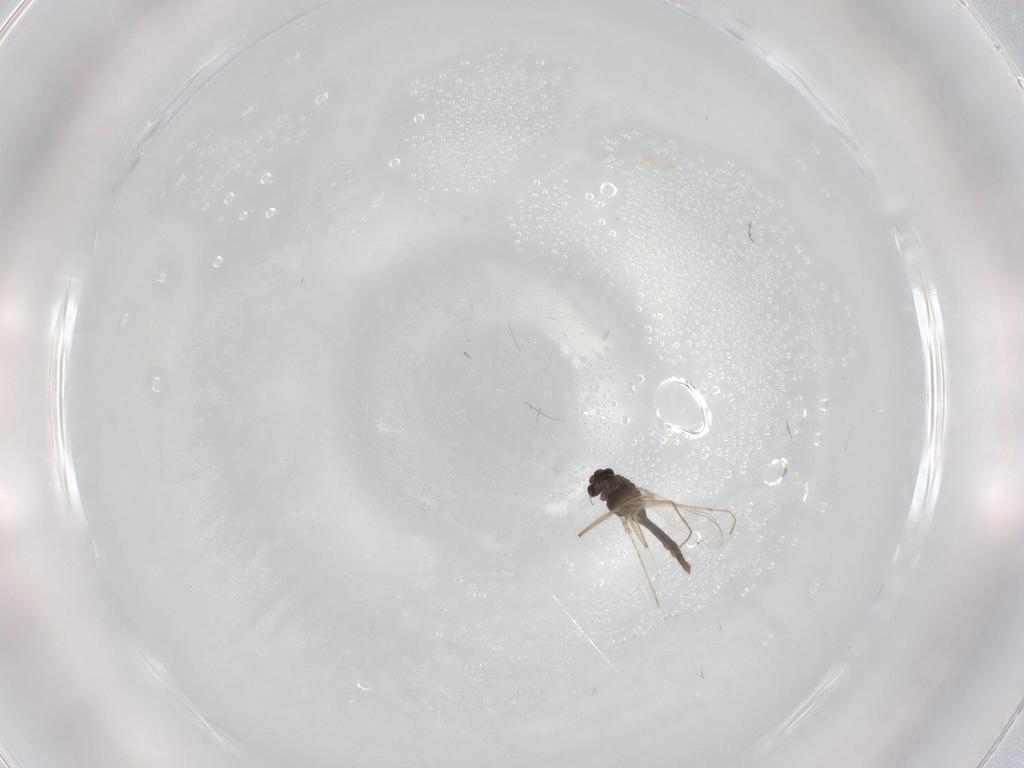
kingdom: Animalia
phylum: Arthropoda
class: Insecta
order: Diptera
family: Chironomidae
